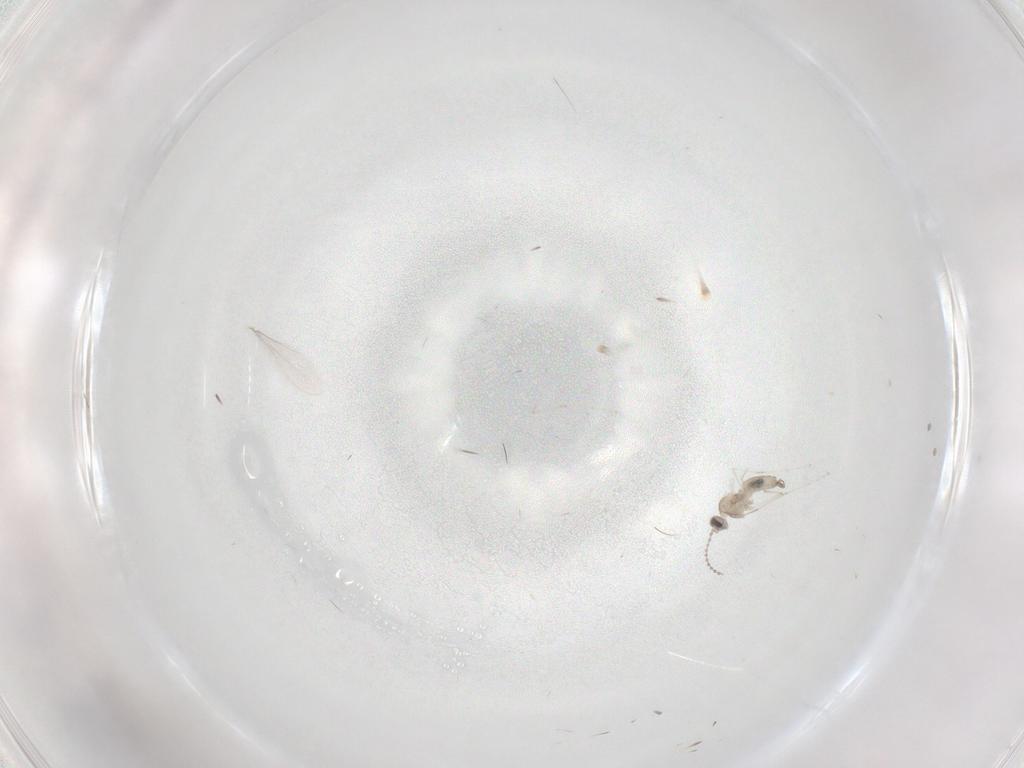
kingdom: Animalia
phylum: Arthropoda
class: Insecta
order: Diptera
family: Cecidomyiidae
